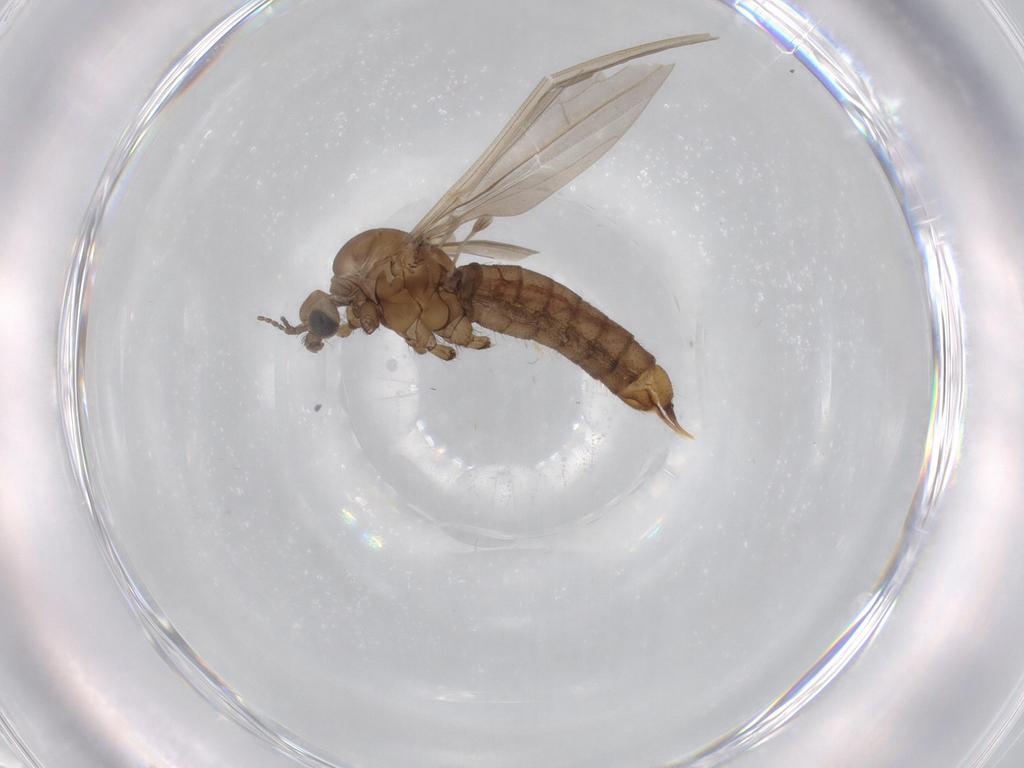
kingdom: Animalia
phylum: Arthropoda
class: Insecta
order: Diptera
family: Limoniidae
